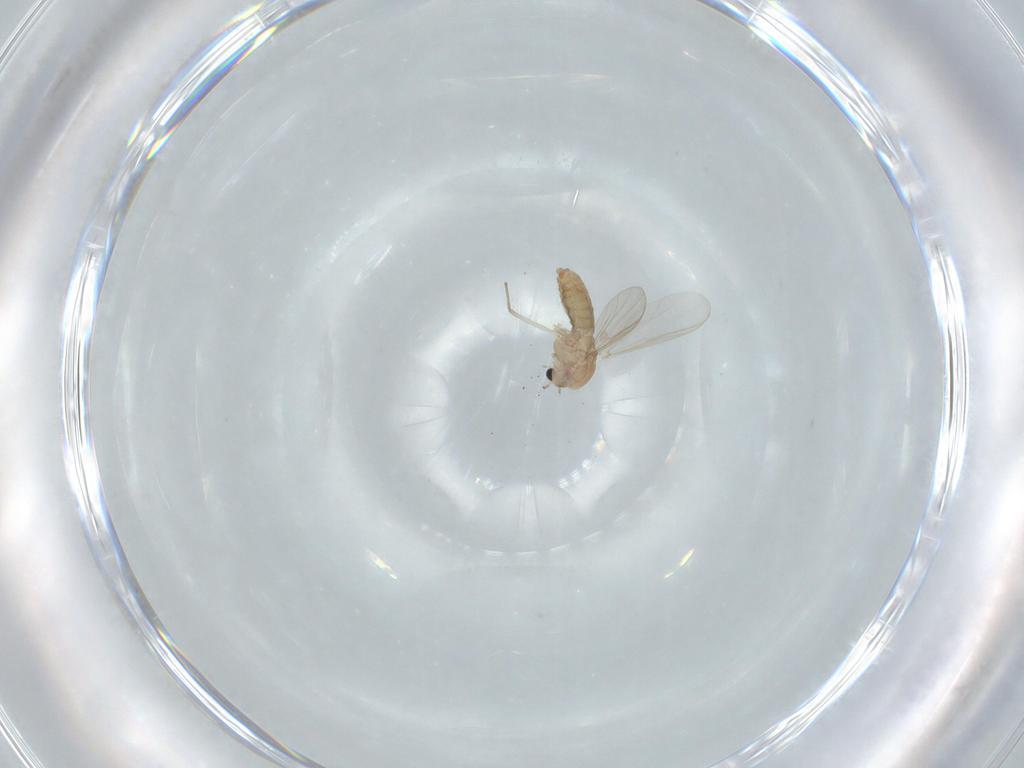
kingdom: Animalia
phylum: Arthropoda
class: Insecta
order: Diptera
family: Chironomidae
